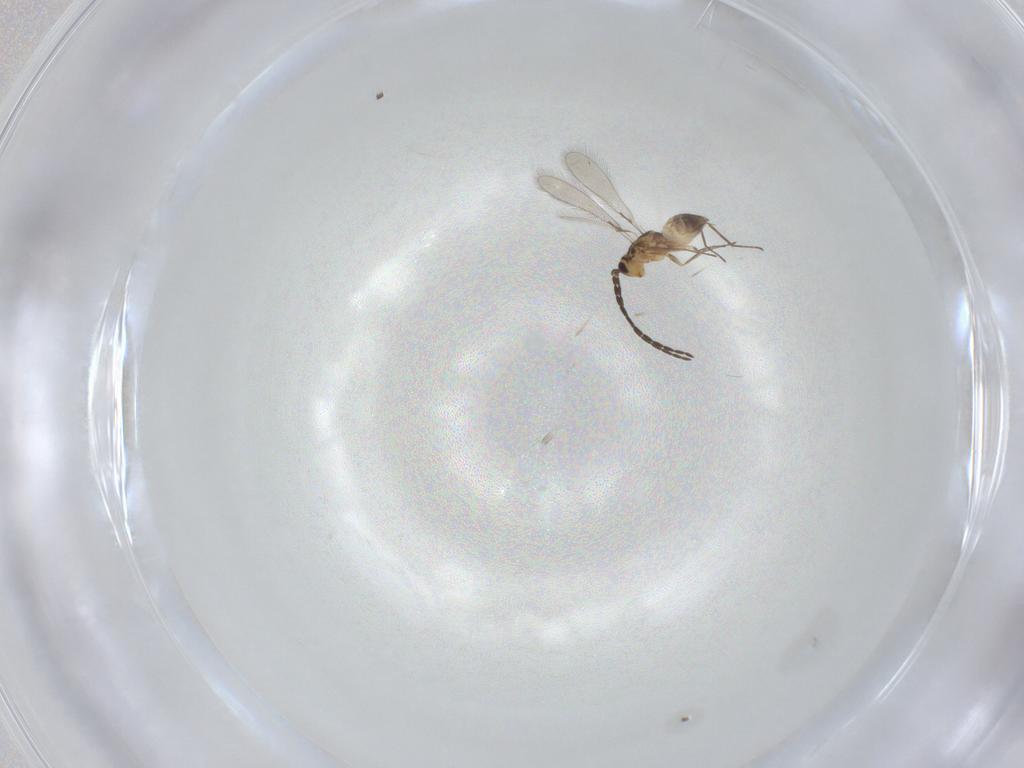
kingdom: Animalia
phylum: Arthropoda
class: Insecta
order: Hymenoptera
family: Mymaridae
